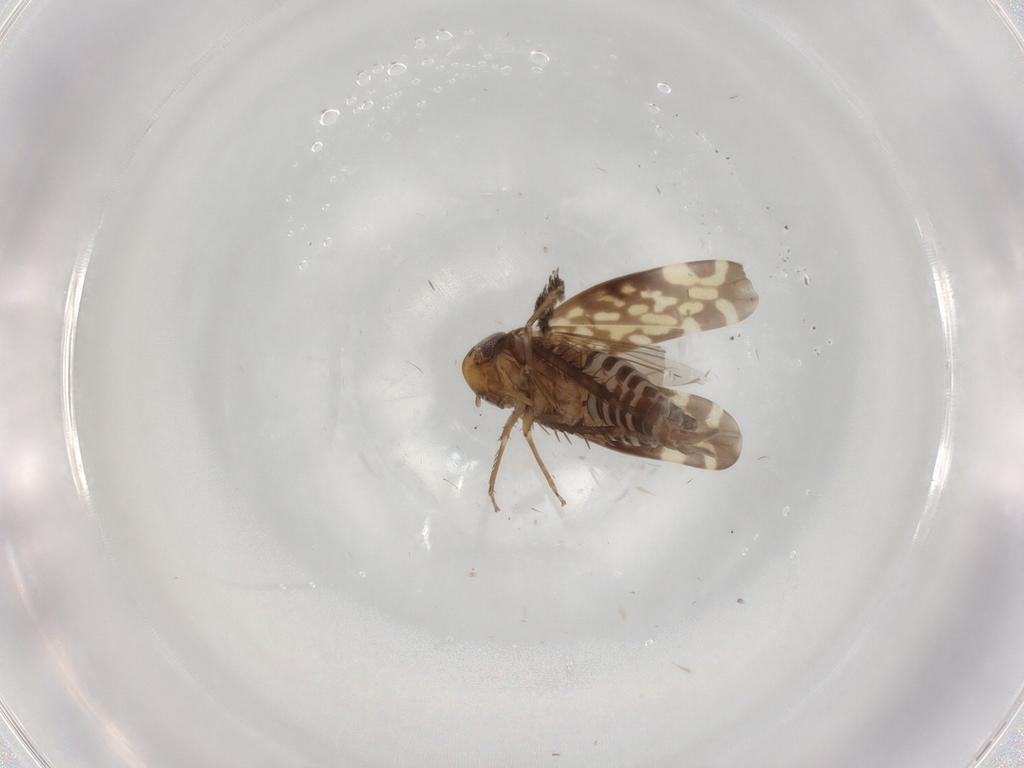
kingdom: Animalia
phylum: Arthropoda
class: Insecta
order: Hemiptera
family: Cicadellidae
